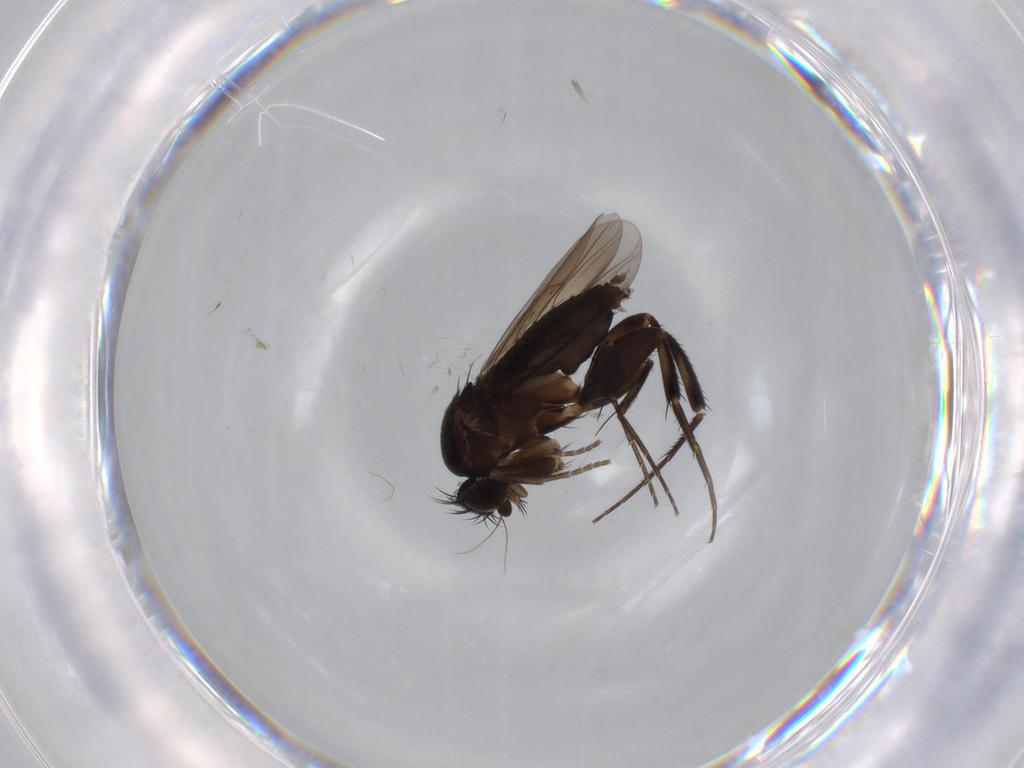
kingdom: Animalia
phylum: Arthropoda
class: Insecta
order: Diptera
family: Phoridae
